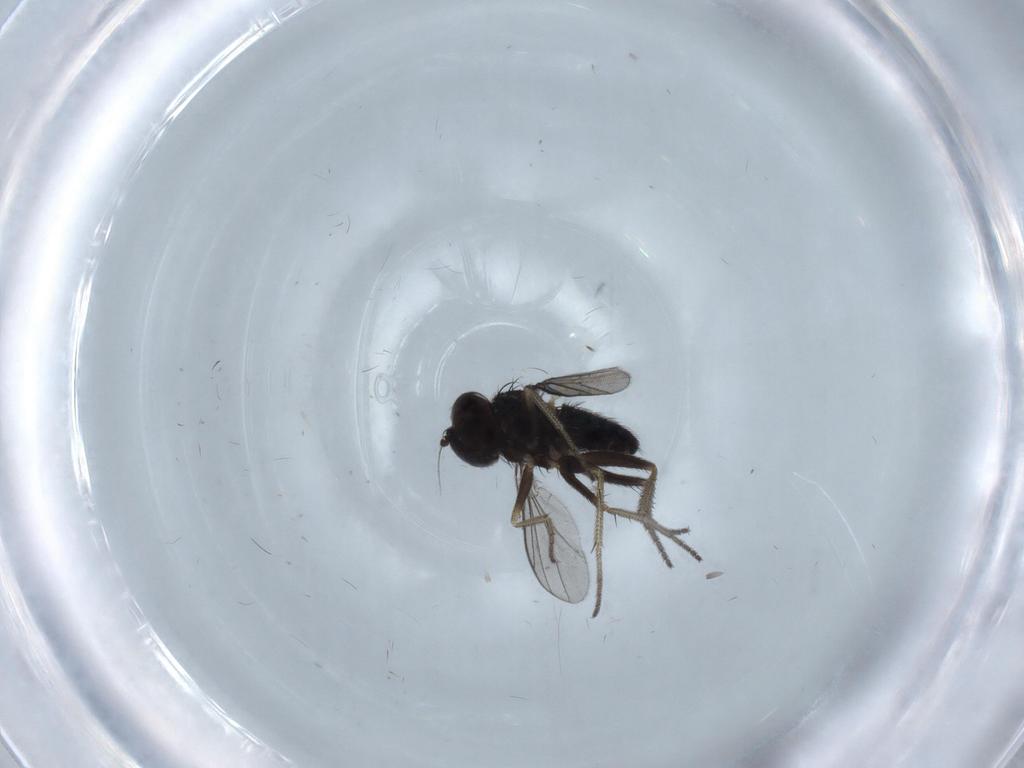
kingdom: Animalia
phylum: Arthropoda
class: Insecta
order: Diptera
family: Dolichopodidae
